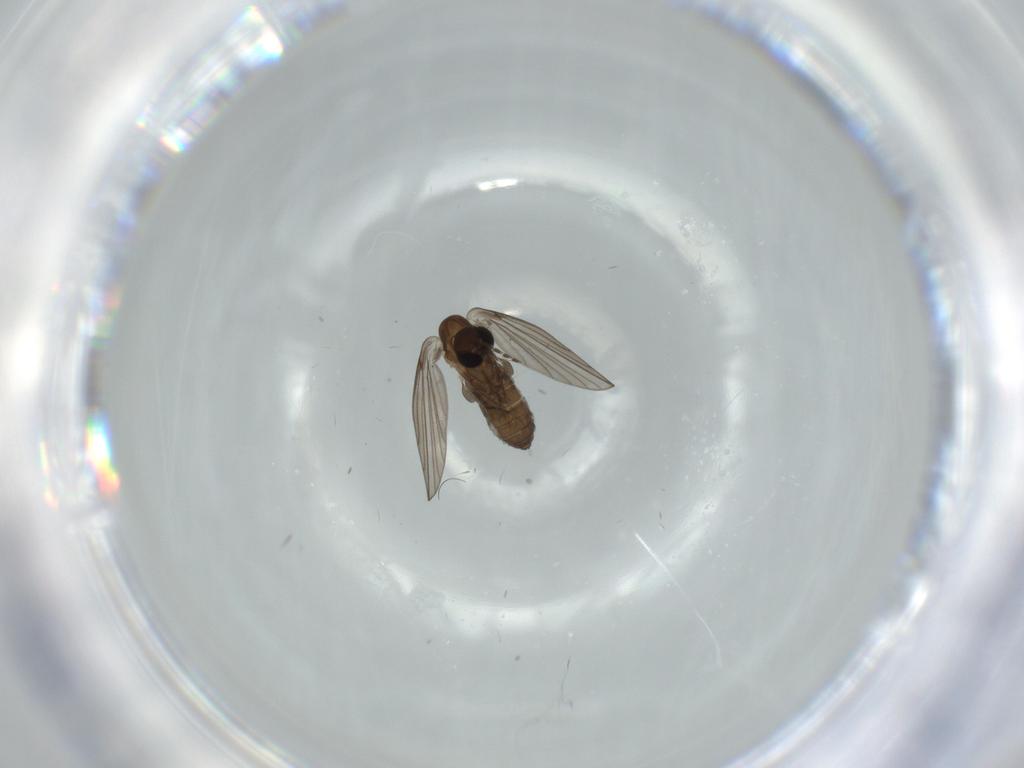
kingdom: Animalia
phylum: Arthropoda
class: Insecta
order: Diptera
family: Psychodidae
